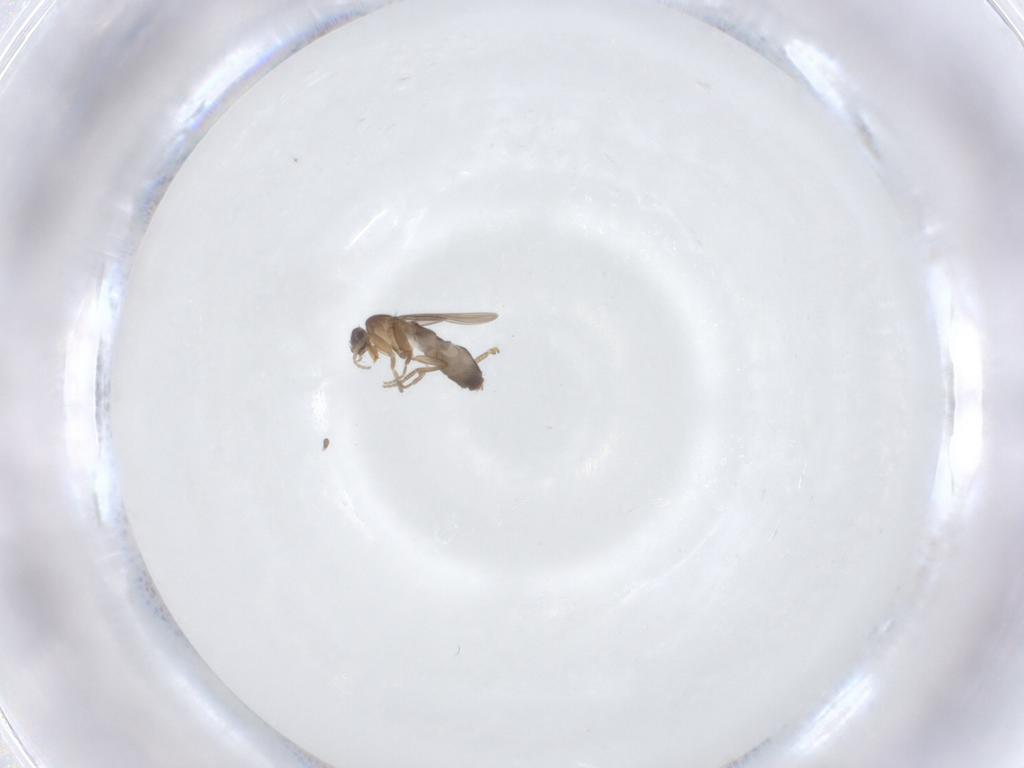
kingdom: Animalia
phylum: Arthropoda
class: Insecta
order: Diptera
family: Phoridae
